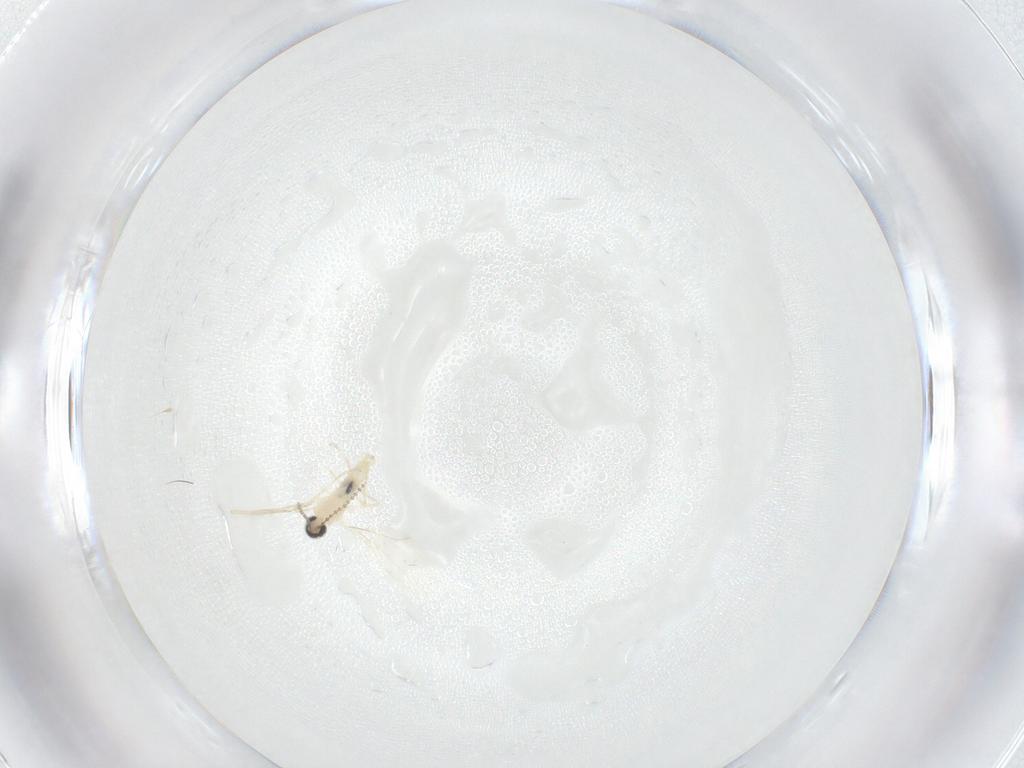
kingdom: Animalia
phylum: Arthropoda
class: Insecta
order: Diptera
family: Cecidomyiidae
